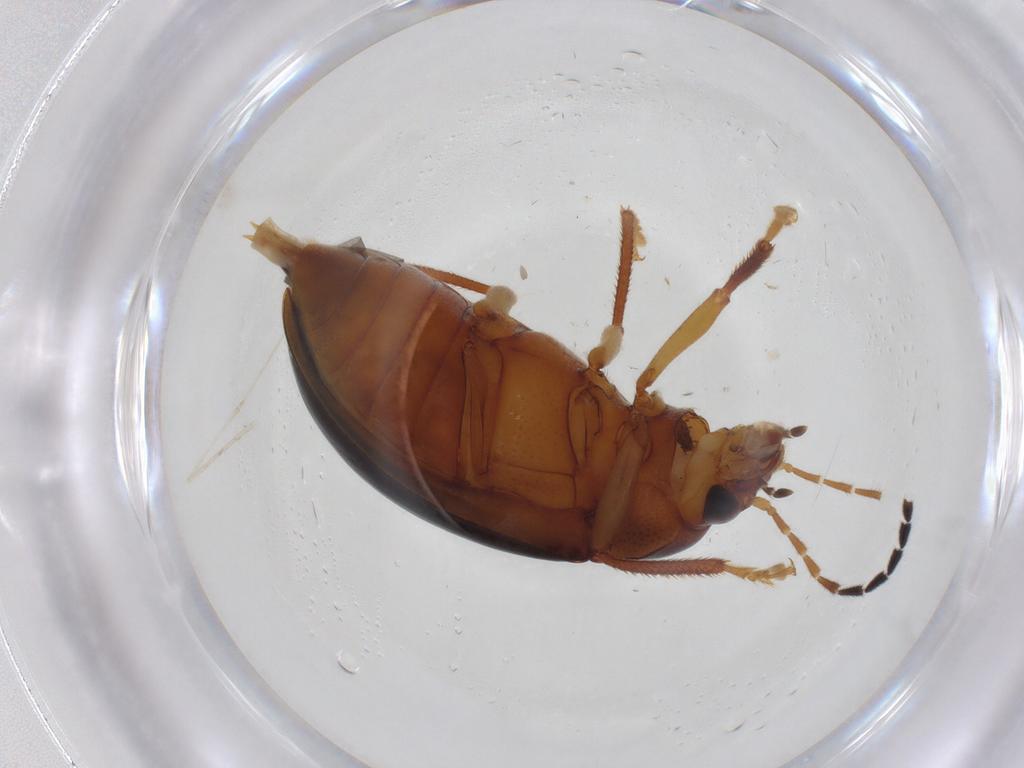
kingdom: Animalia
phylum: Arthropoda
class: Insecta
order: Coleoptera
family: Ptilodactylidae
